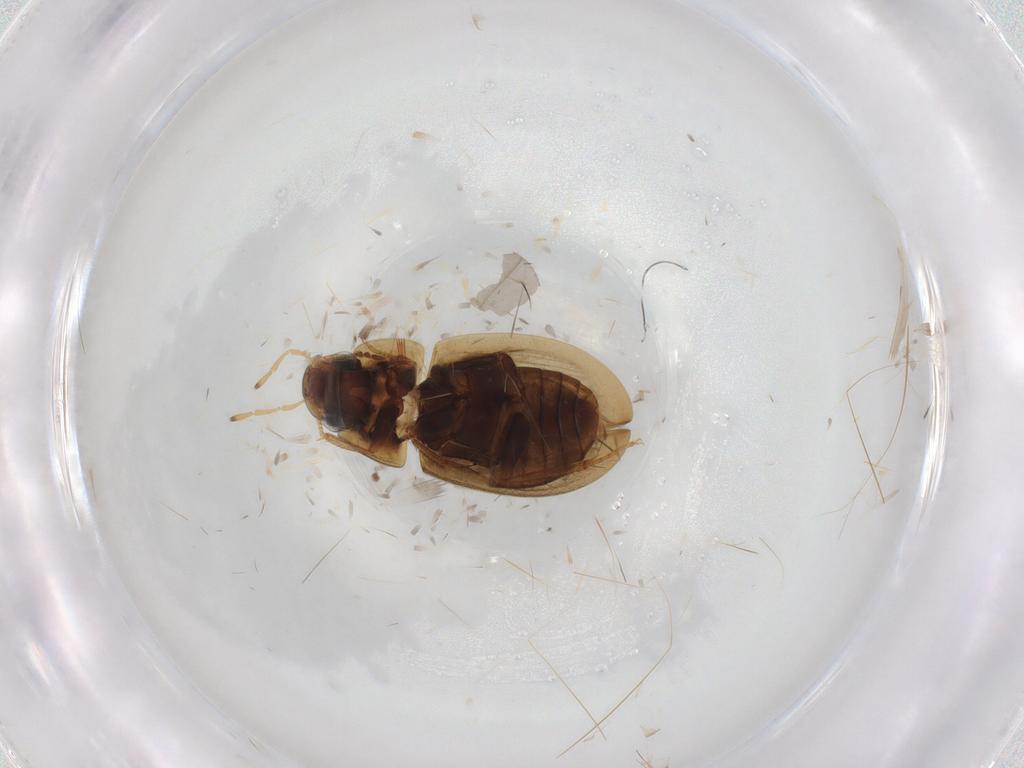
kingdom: Animalia
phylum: Arthropoda
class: Insecta
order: Coleoptera
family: Hydrophilidae
